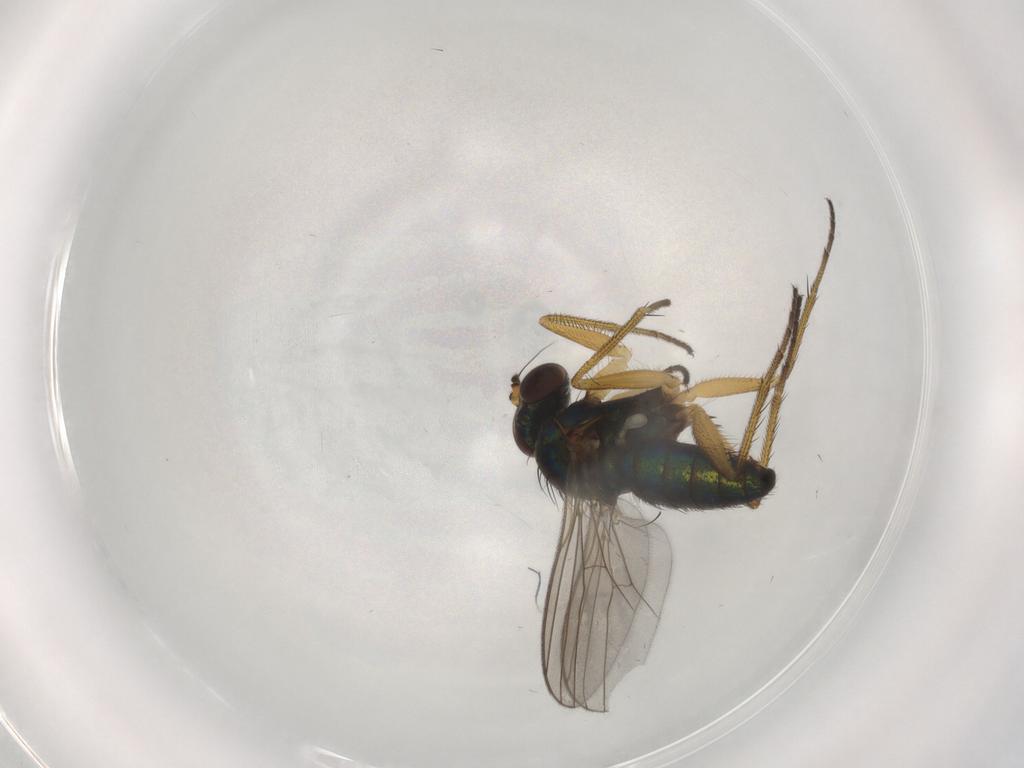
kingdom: Animalia
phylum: Arthropoda
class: Insecta
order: Diptera
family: Dolichopodidae
